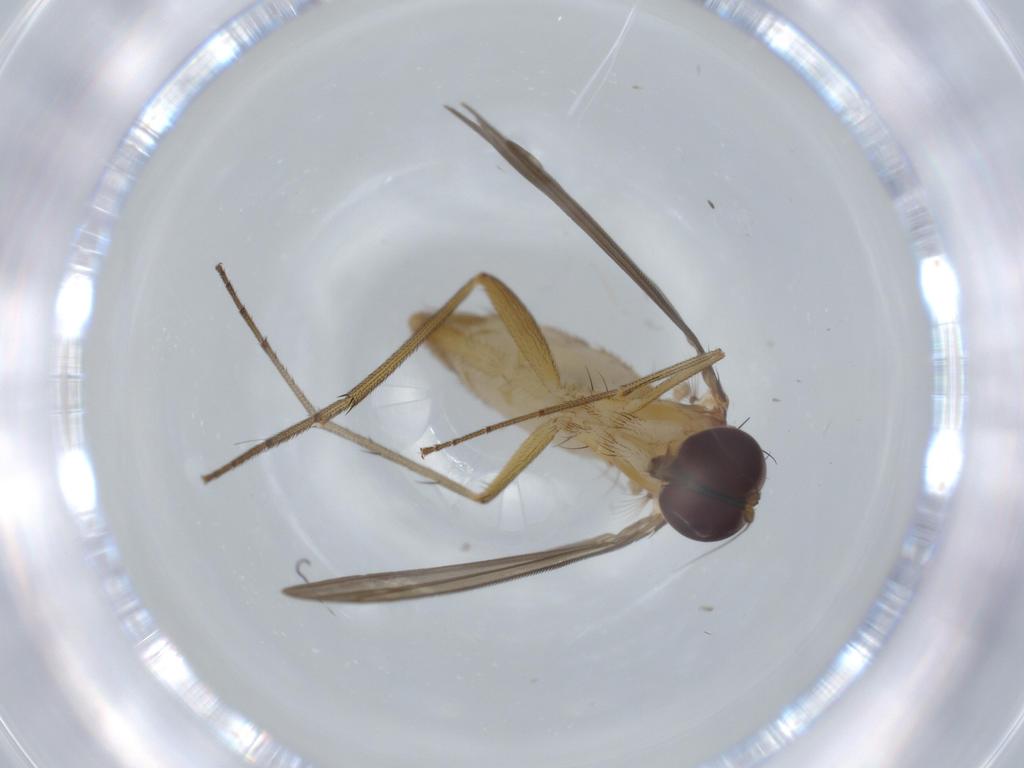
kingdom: Animalia
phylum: Arthropoda
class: Insecta
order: Diptera
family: Dolichopodidae
